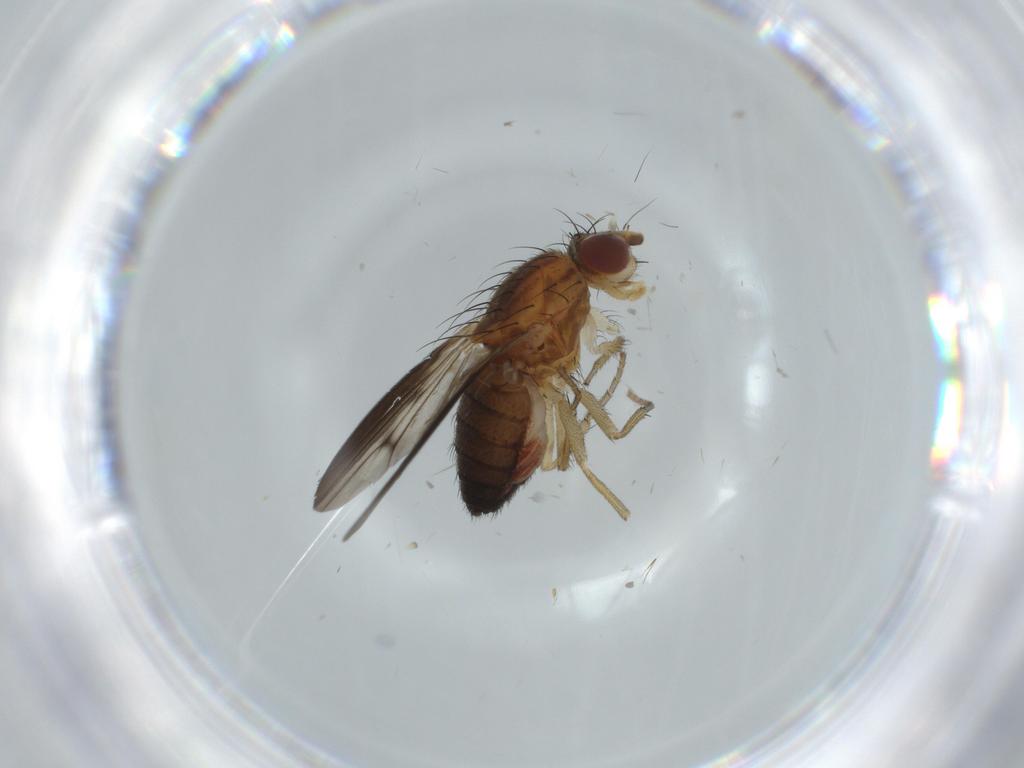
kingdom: Animalia
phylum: Arthropoda
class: Insecta
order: Diptera
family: Heleomyzidae
